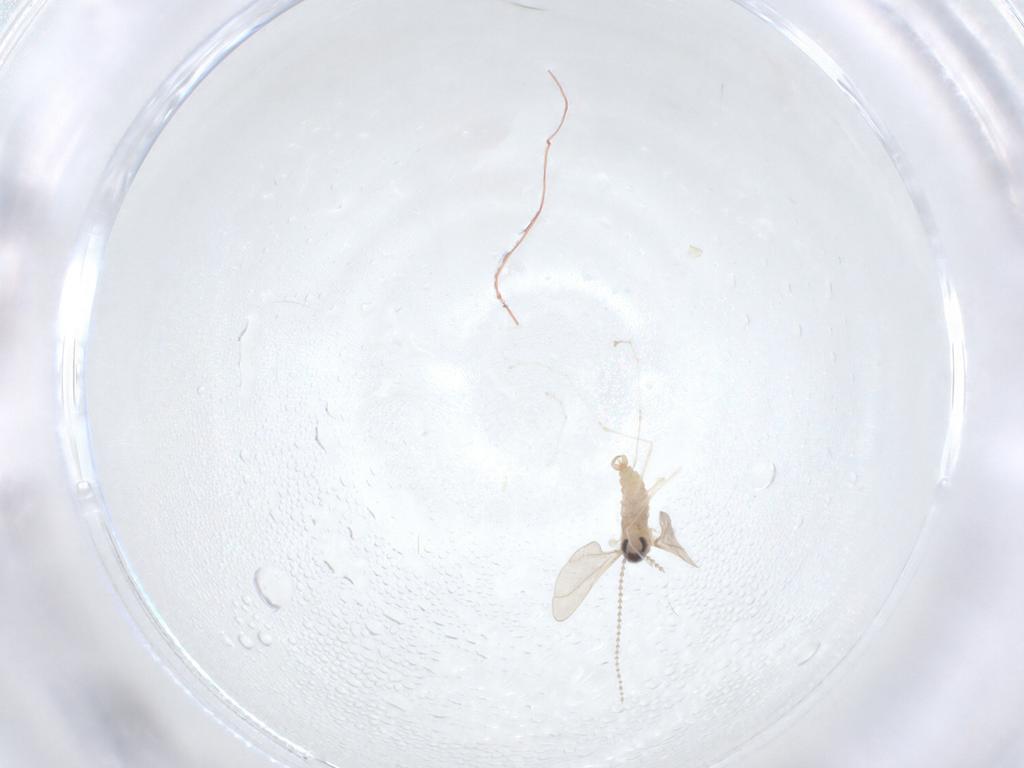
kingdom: Animalia
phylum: Arthropoda
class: Insecta
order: Diptera
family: Cecidomyiidae
